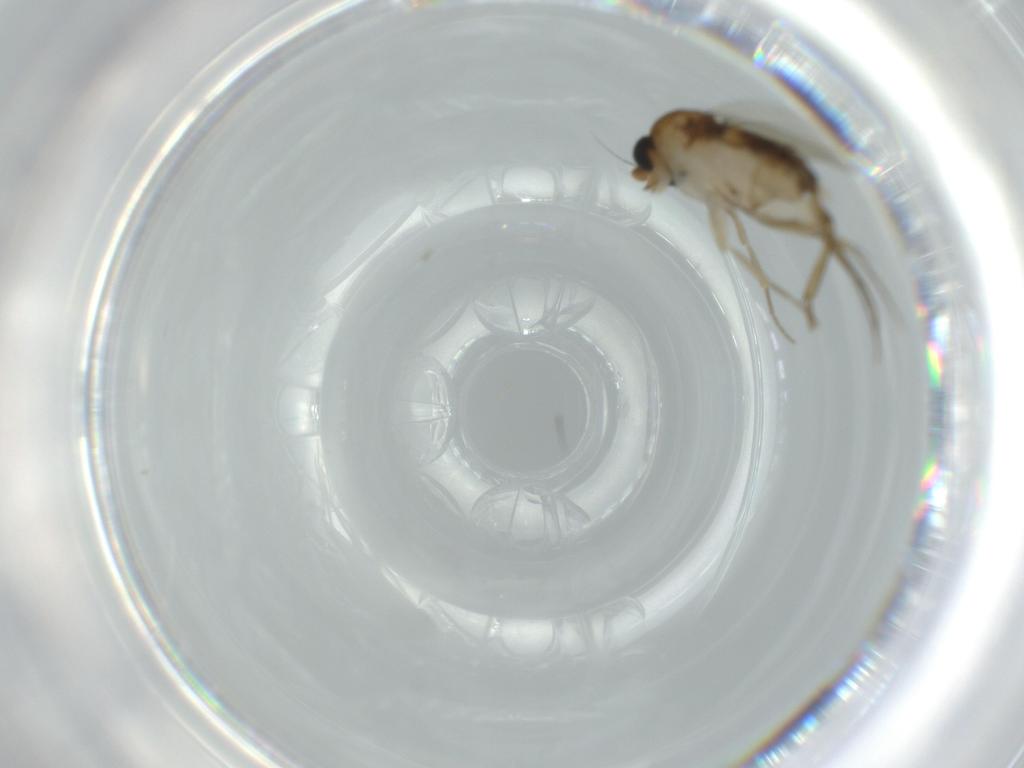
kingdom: Animalia
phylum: Arthropoda
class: Insecta
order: Diptera
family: Phoridae
